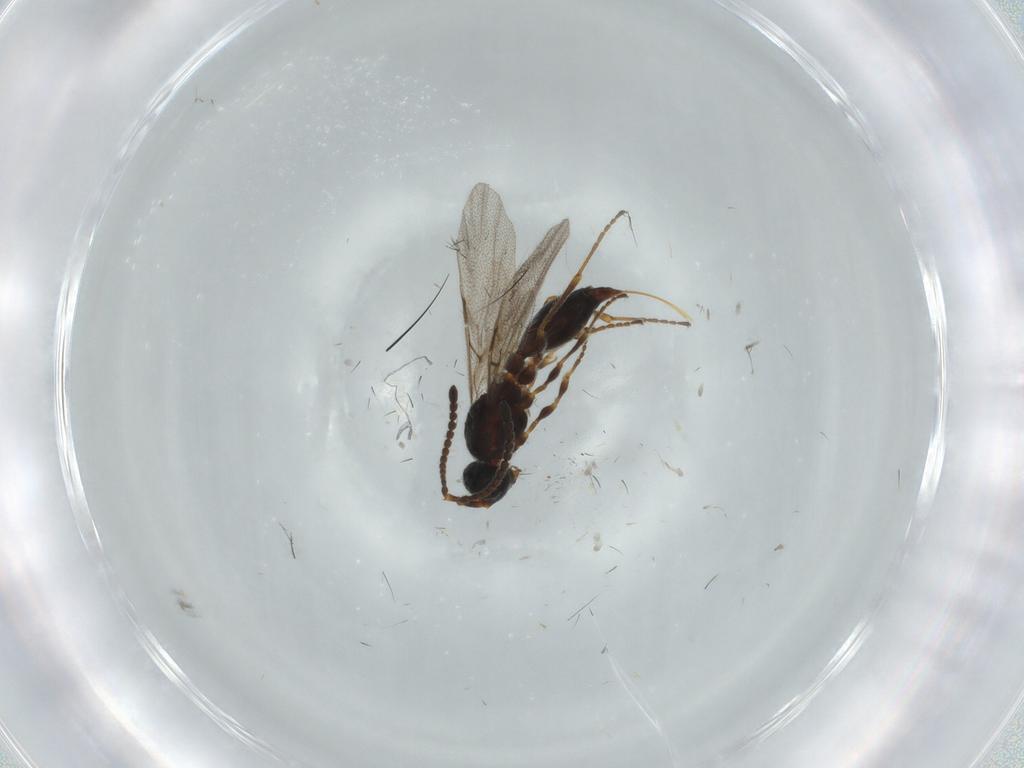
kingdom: Animalia
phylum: Arthropoda
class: Insecta
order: Hymenoptera
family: Diapriidae
